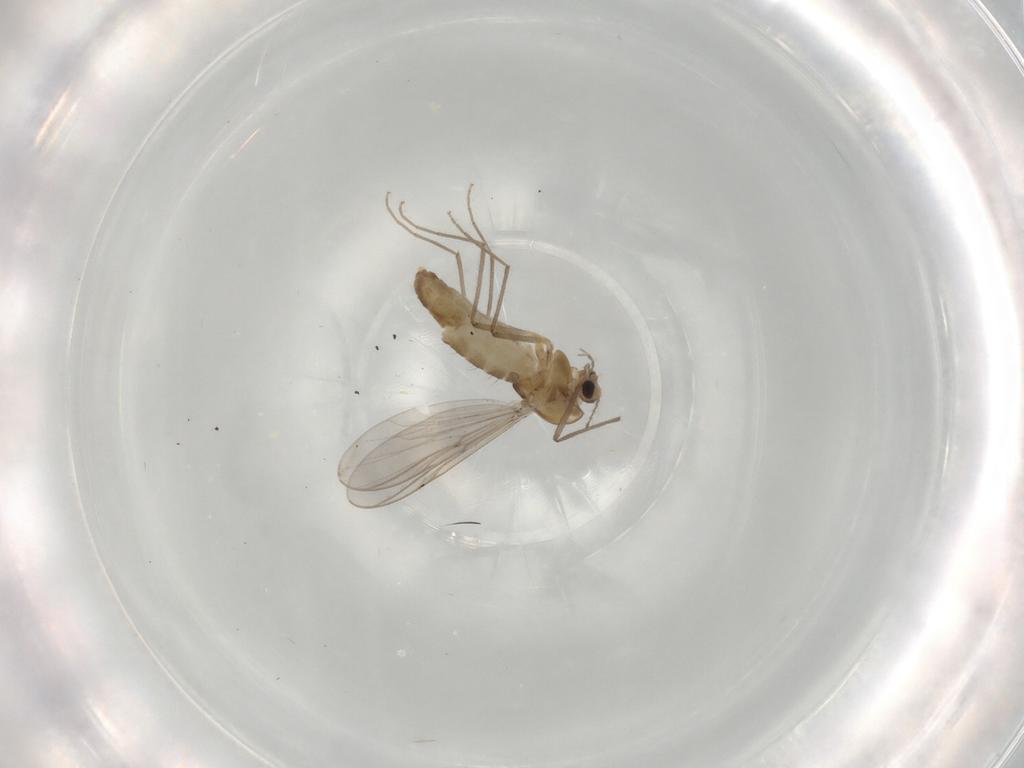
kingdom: Animalia
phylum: Arthropoda
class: Insecta
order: Diptera
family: Chironomidae
